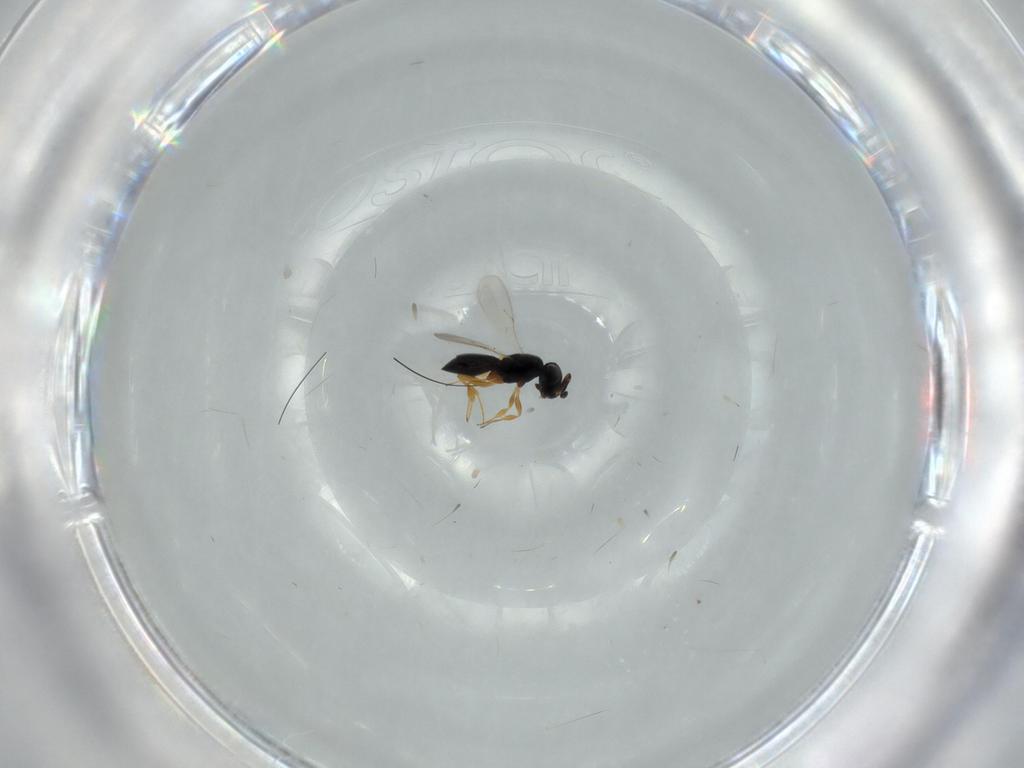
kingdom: Animalia
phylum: Arthropoda
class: Insecta
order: Hymenoptera
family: Scelionidae
